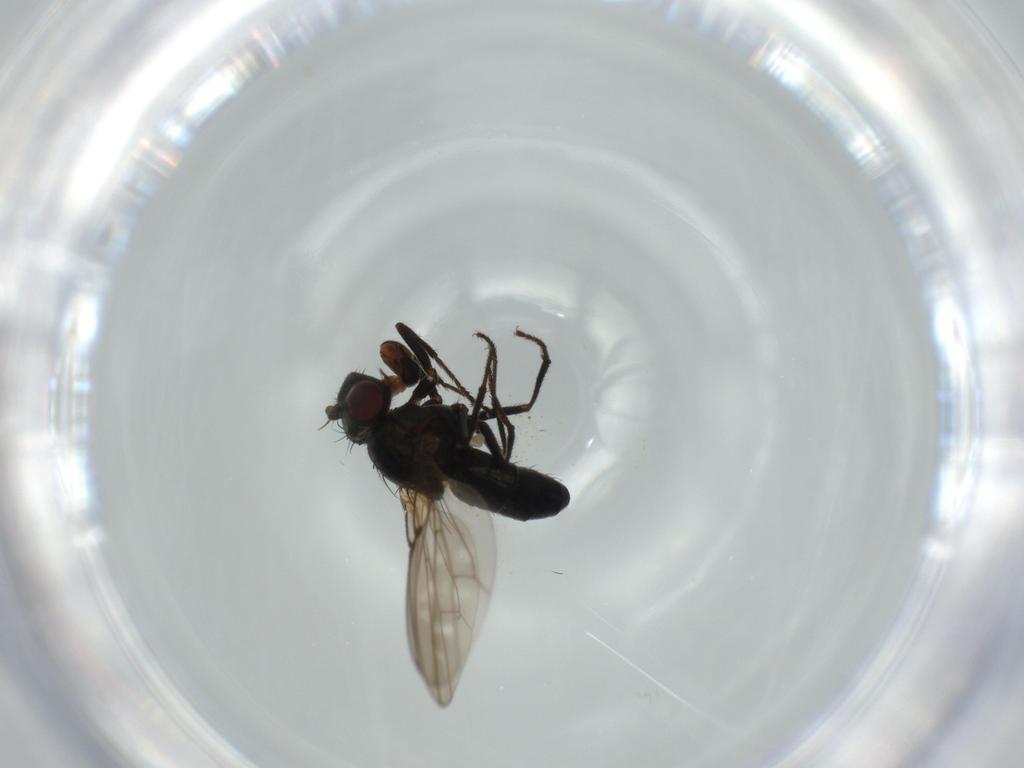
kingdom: Animalia
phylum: Arthropoda
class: Insecta
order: Diptera
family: Ephydridae
